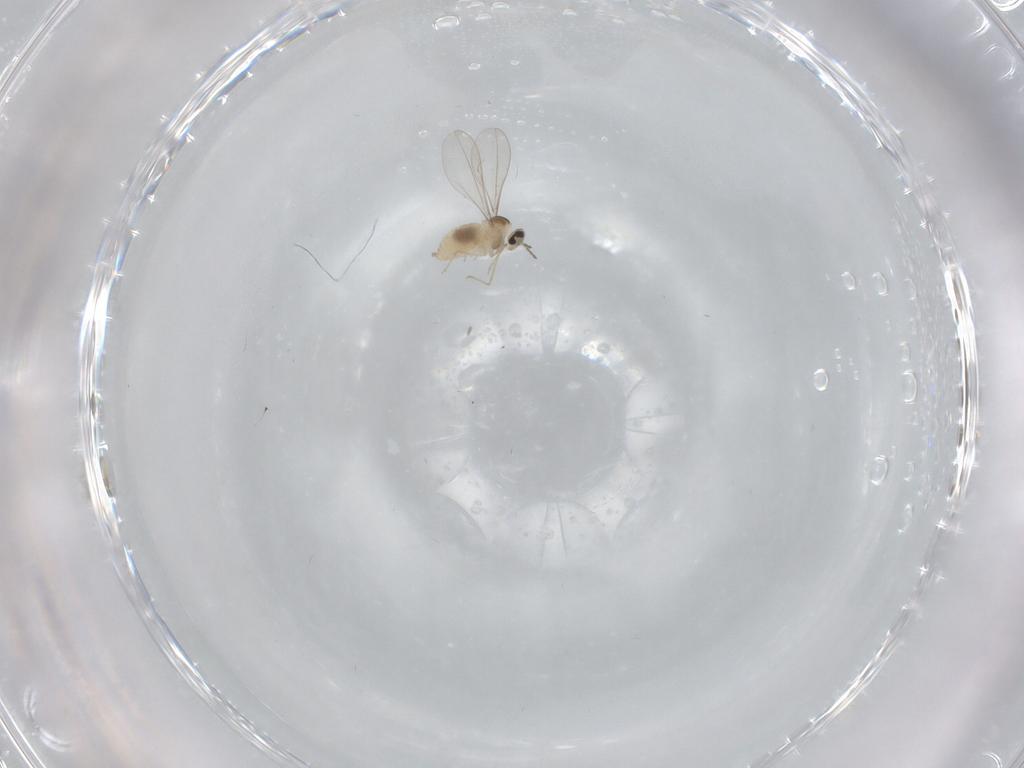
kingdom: Animalia
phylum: Arthropoda
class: Insecta
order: Diptera
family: Psychodidae
